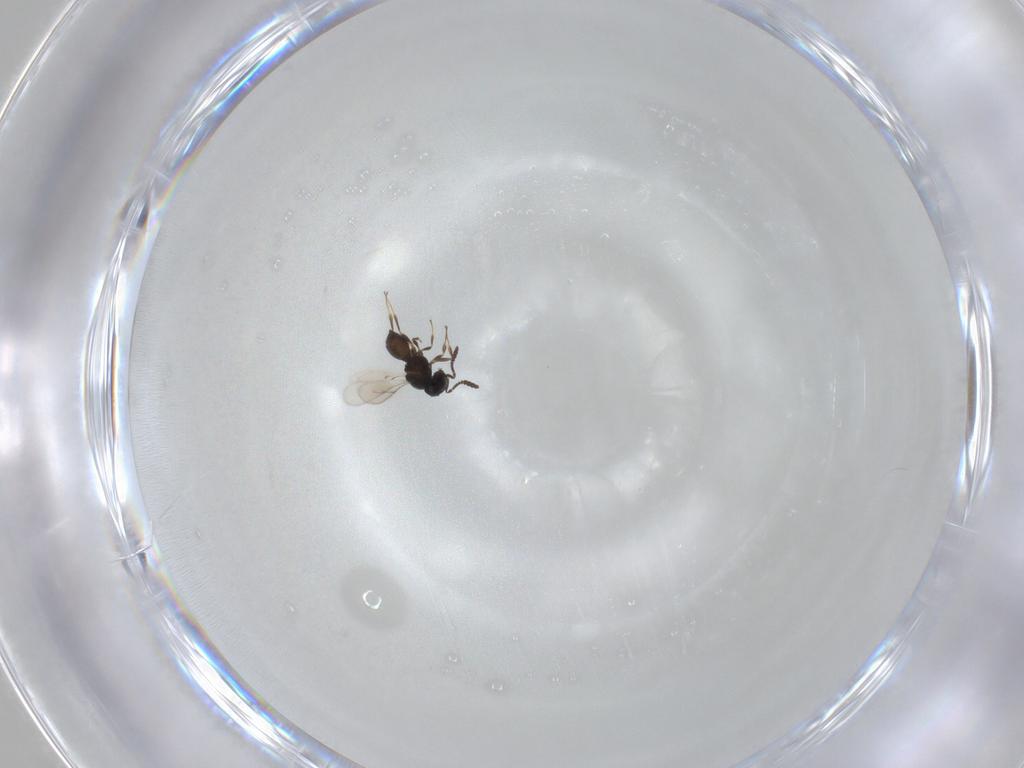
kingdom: Animalia
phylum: Arthropoda
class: Insecta
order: Hymenoptera
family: Scelionidae
